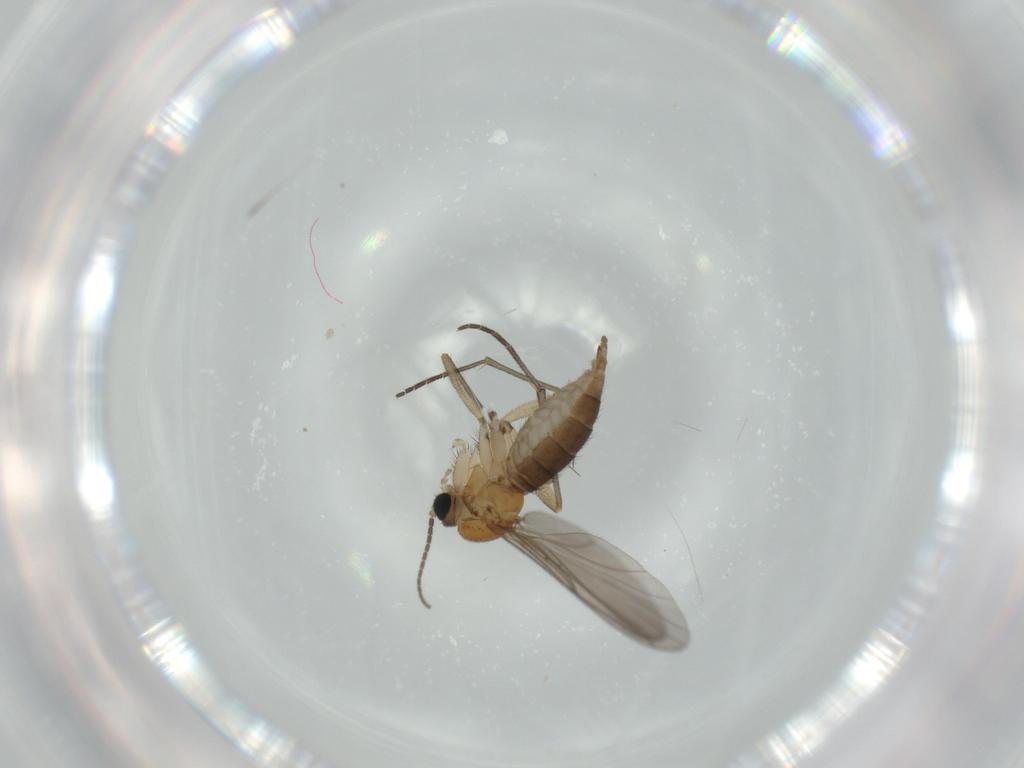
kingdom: Animalia
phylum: Arthropoda
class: Insecta
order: Diptera
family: Sciaridae
